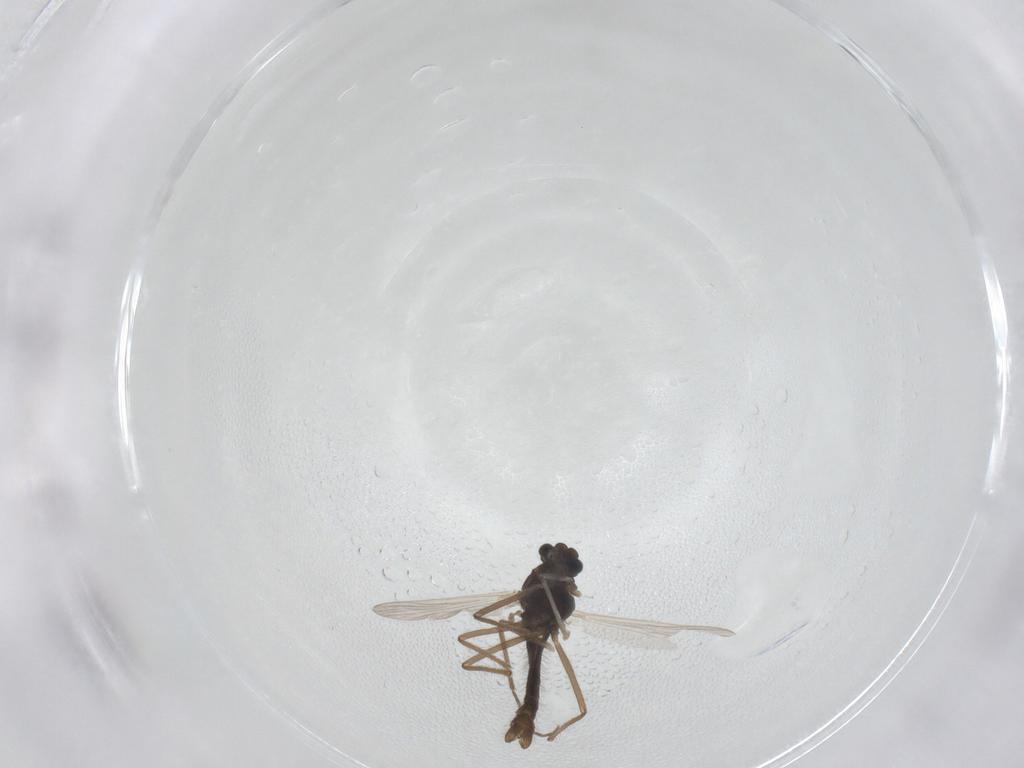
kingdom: Animalia
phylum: Arthropoda
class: Insecta
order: Diptera
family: Chironomidae
